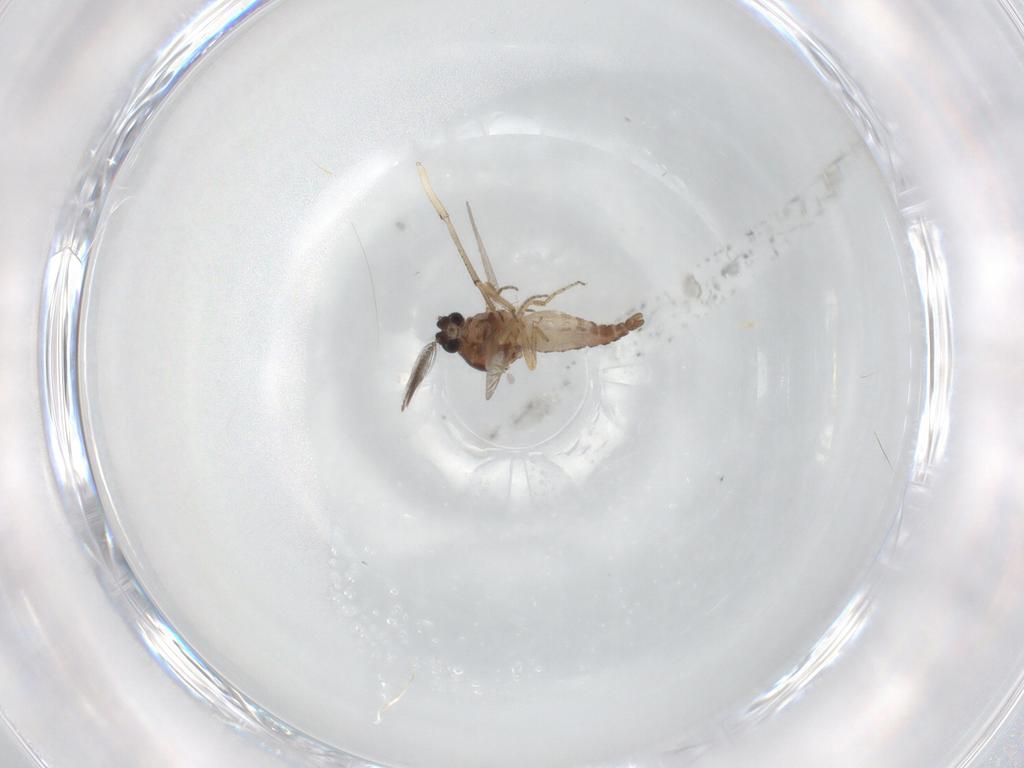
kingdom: Animalia
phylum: Arthropoda
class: Insecta
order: Diptera
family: Ceratopogonidae
